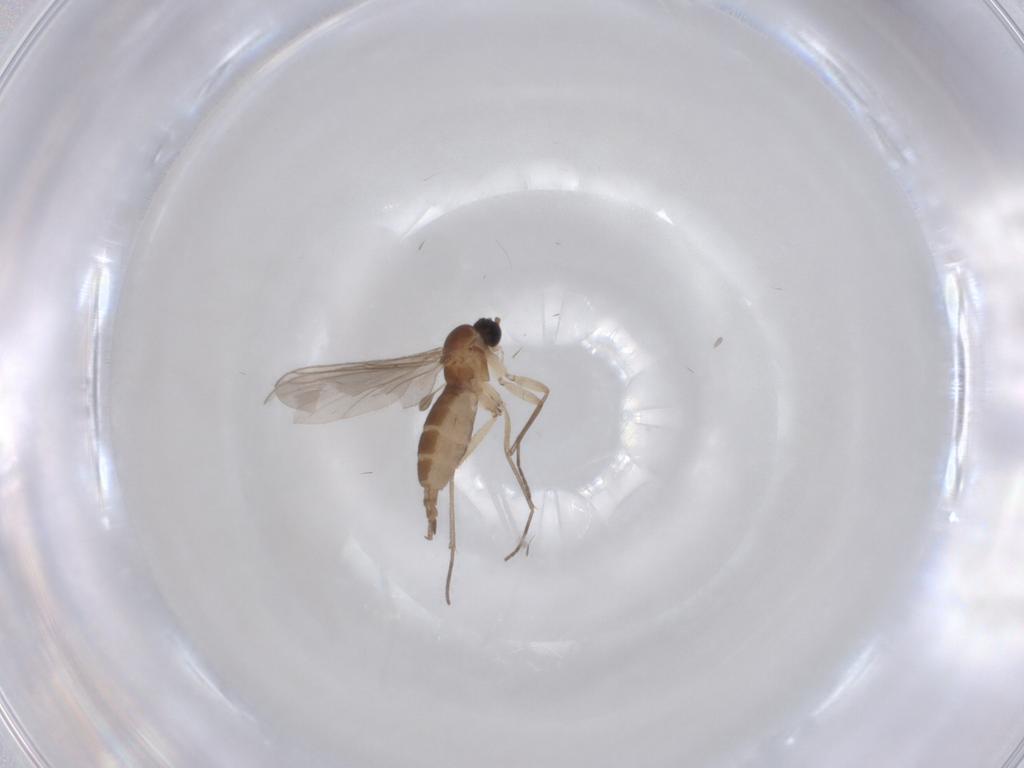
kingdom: Animalia
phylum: Arthropoda
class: Insecta
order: Diptera
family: Sciaridae
